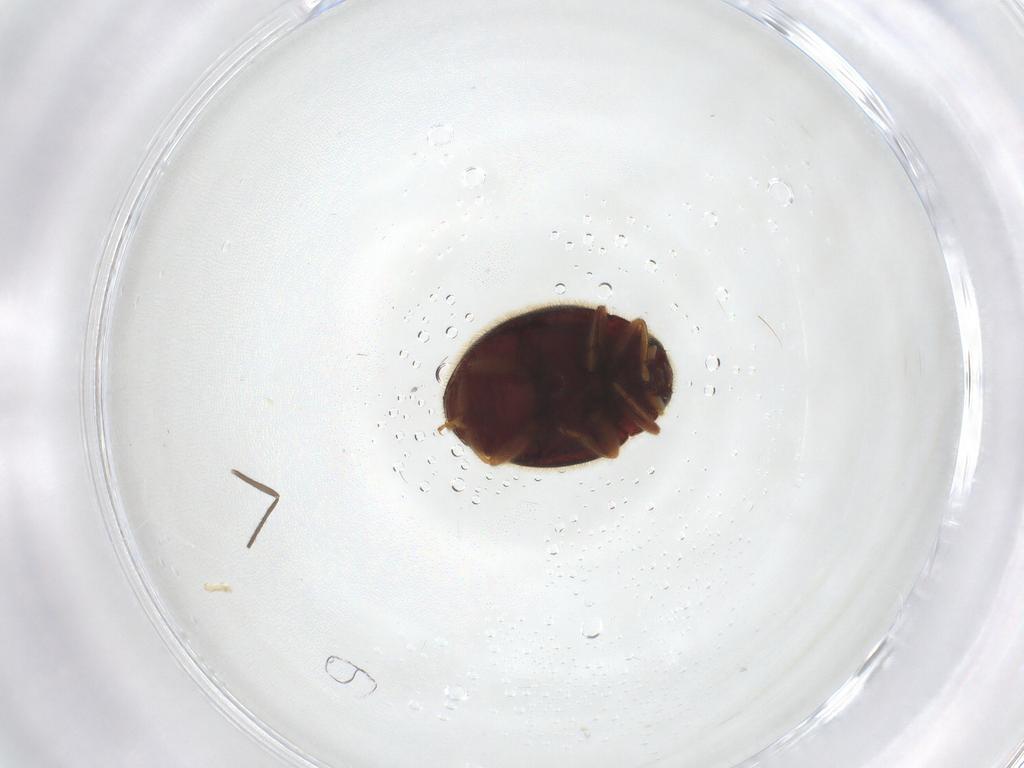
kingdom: Animalia
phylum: Arthropoda
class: Insecta
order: Coleoptera
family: Coccinellidae
